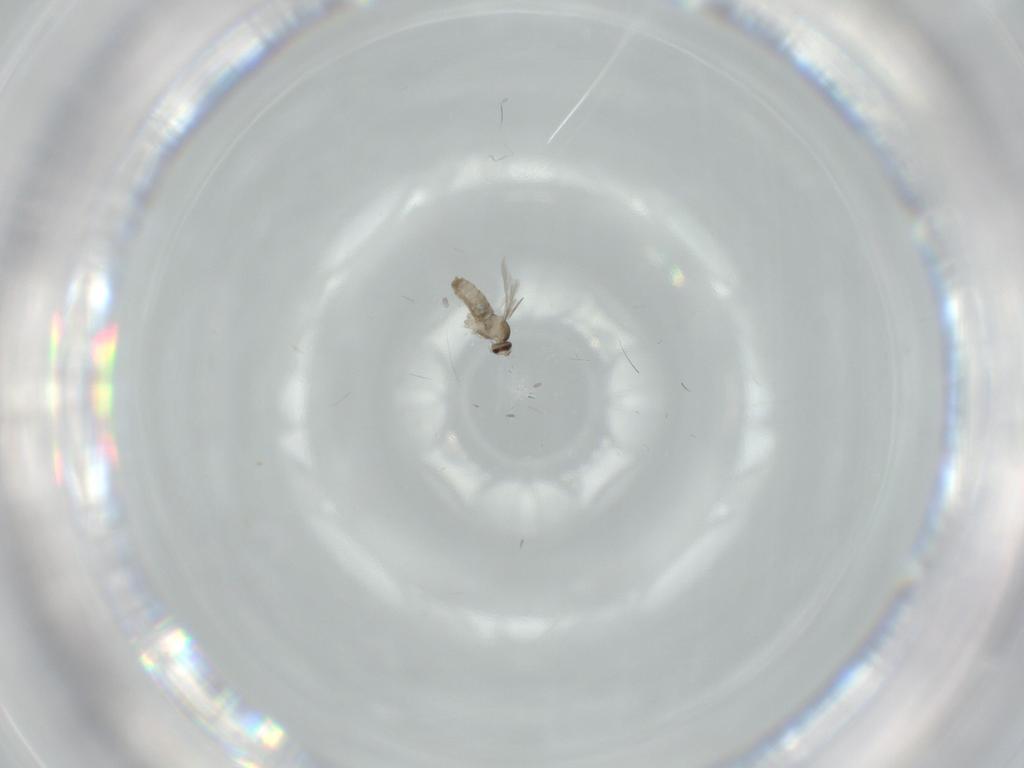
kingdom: Animalia
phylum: Arthropoda
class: Insecta
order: Diptera
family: Cecidomyiidae
